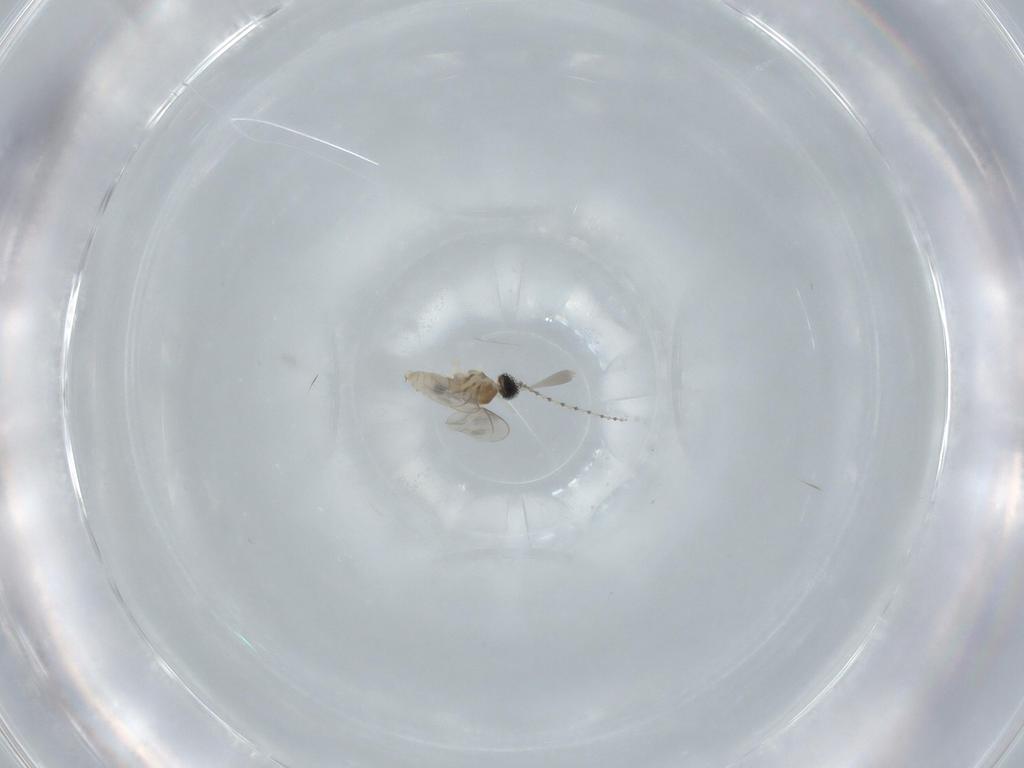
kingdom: Animalia
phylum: Arthropoda
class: Insecta
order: Diptera
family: Cecidomyiidae
